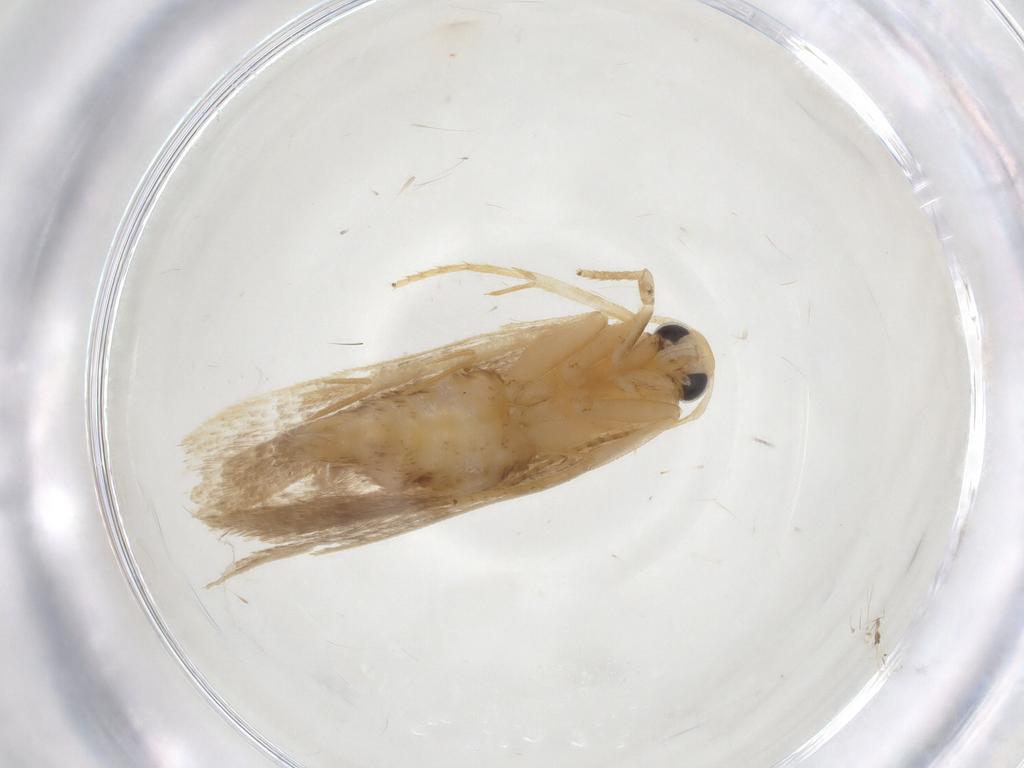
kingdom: Animalia
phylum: Arthropoda
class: Insecta
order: Lepidoptera
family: Gelechiidae
